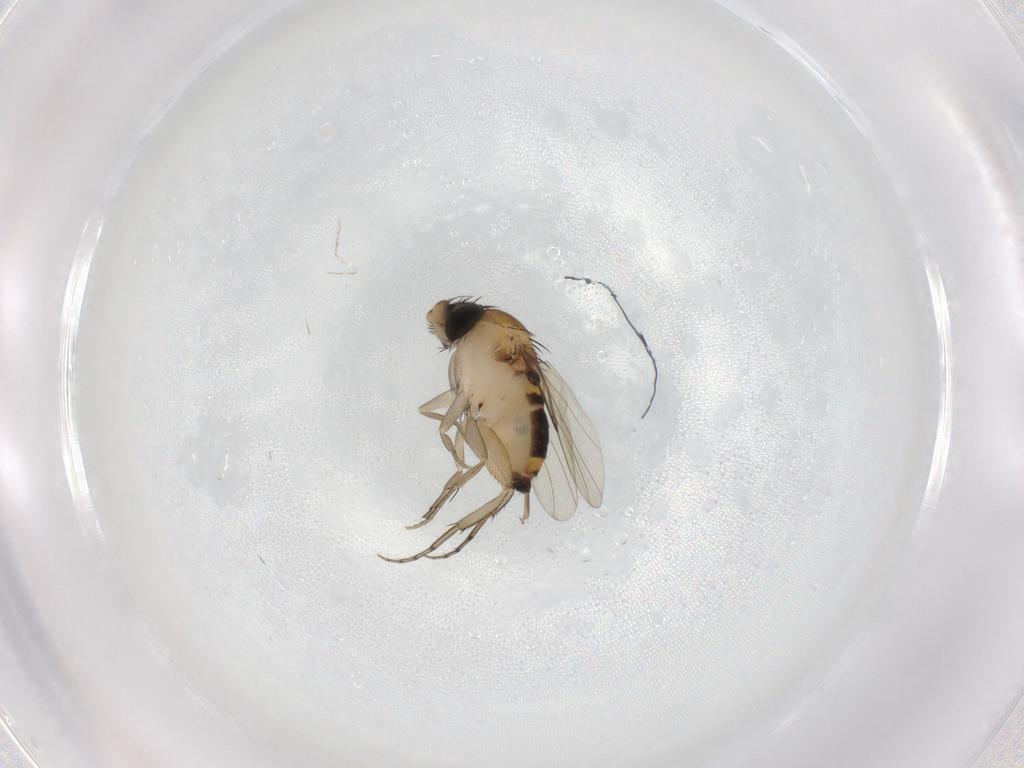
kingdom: Animalia
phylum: Arthropoda
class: Insecta
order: Diptera
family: Phoridae
